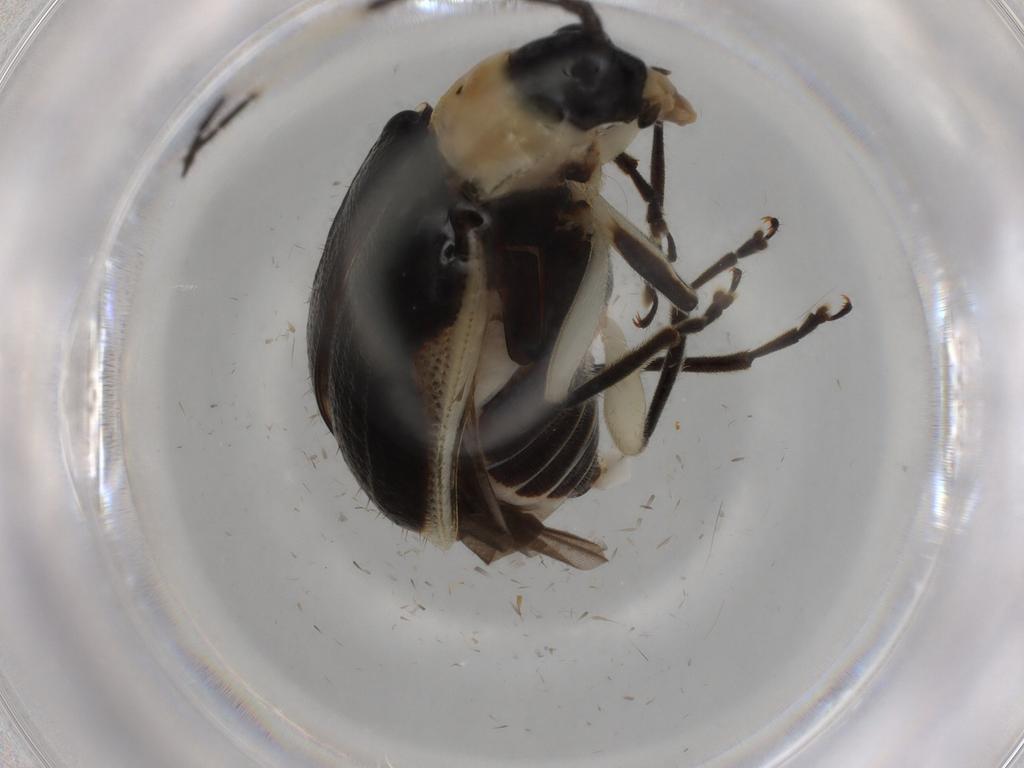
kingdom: Animalia
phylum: Arthropoda
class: Insecta
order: Coleoptera
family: Chrysomelidae
